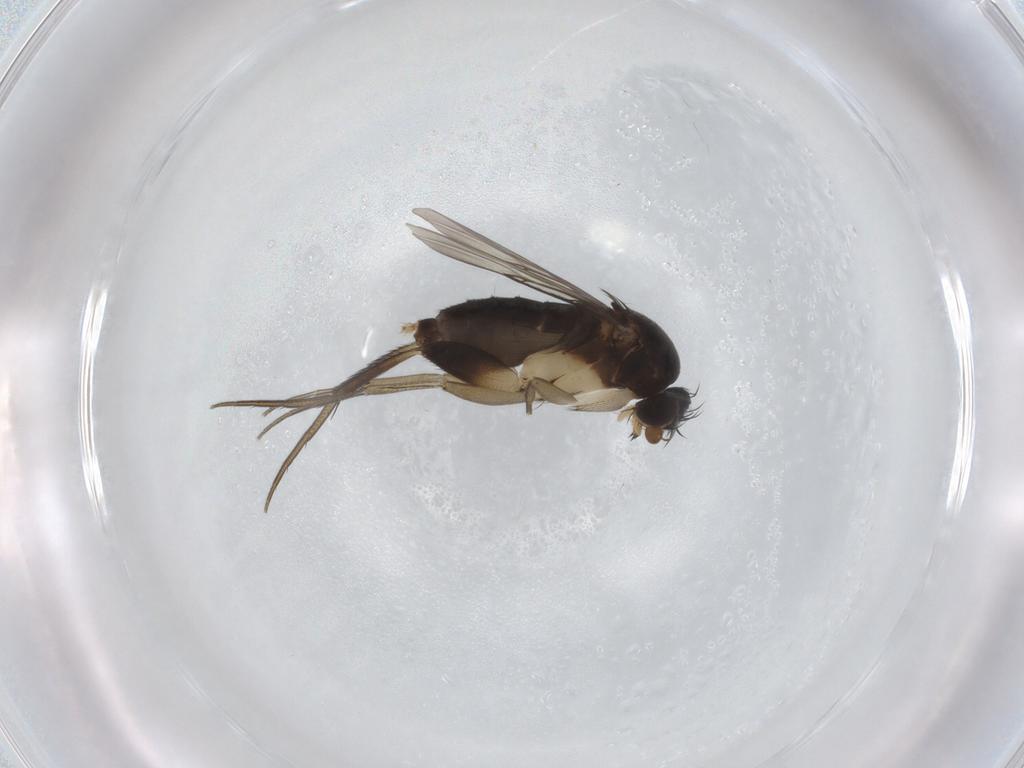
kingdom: Animalia
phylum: Arthropoda
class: Insecta
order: Diptera
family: Phoridae
